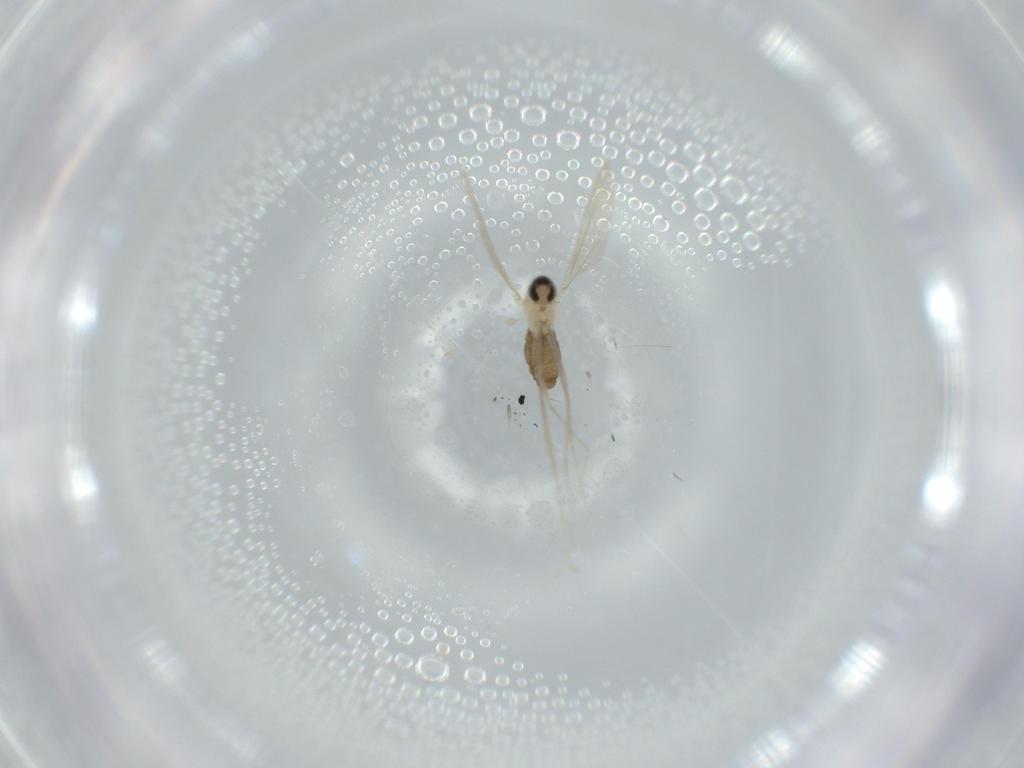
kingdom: Animalia
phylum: Arthropoda
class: Insecta
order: Diptera
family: Cecidomyiidae
